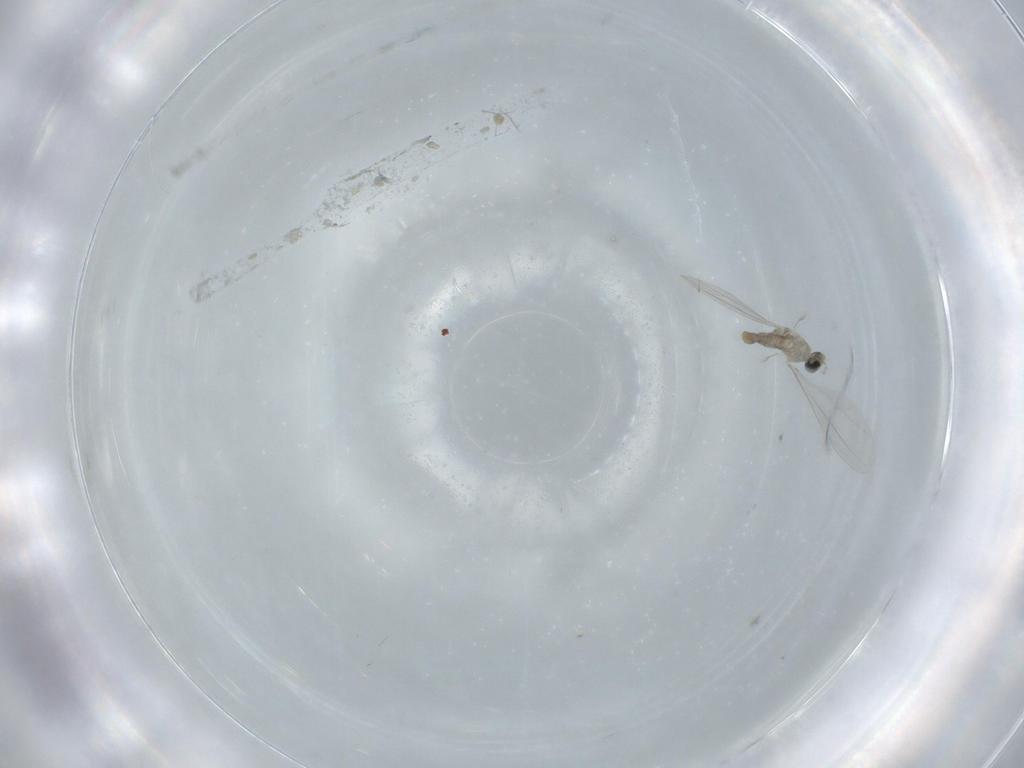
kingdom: Animalia
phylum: Arthropoda
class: Insecta
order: Diptera
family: Cecidomyiidae
